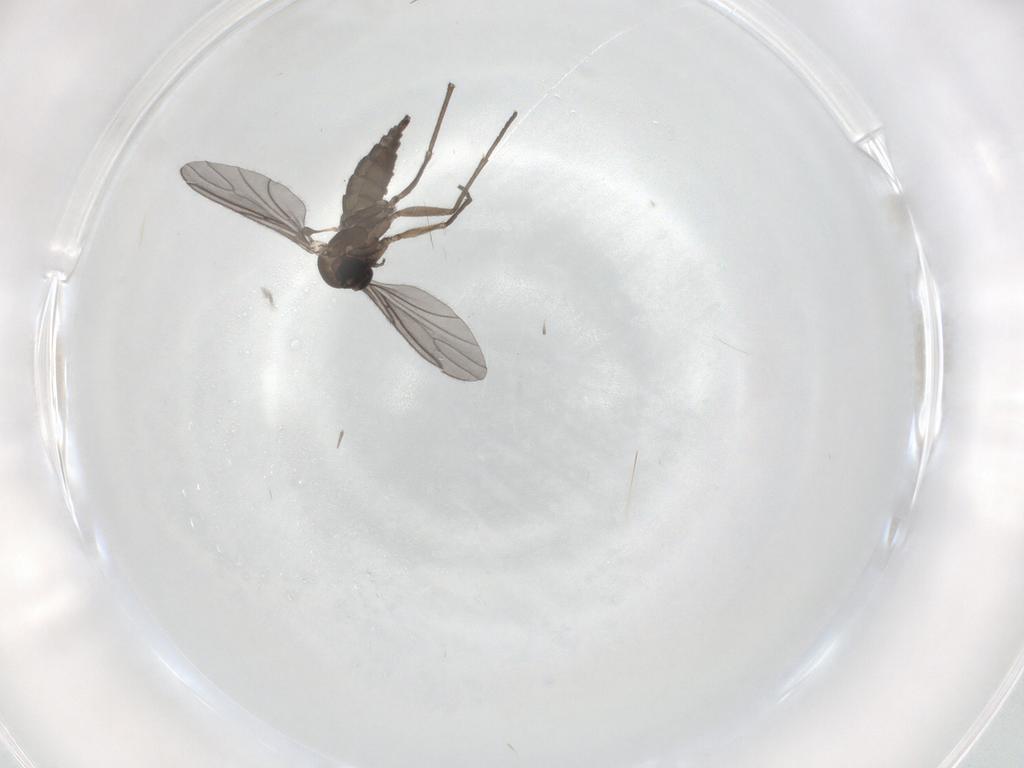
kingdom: Animalia
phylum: Arthropoda
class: Insecta
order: Diptera
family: Sciaridae
